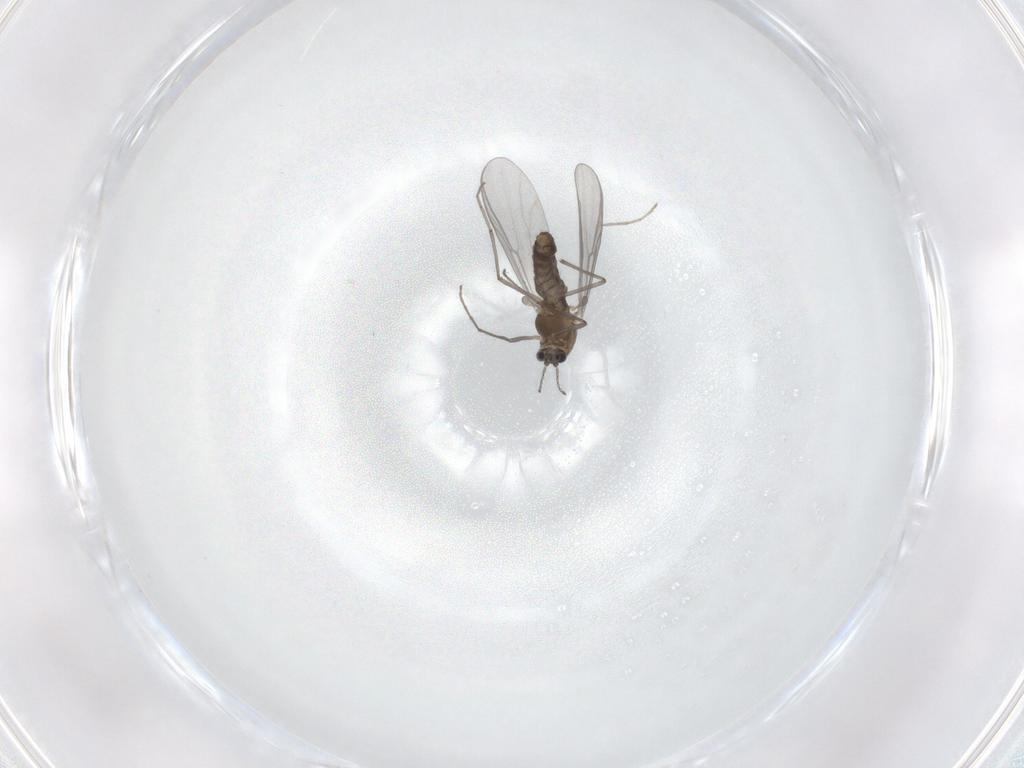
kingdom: Animalia
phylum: Arthropoda
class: Insecta
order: Diptera
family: Chironomidae
